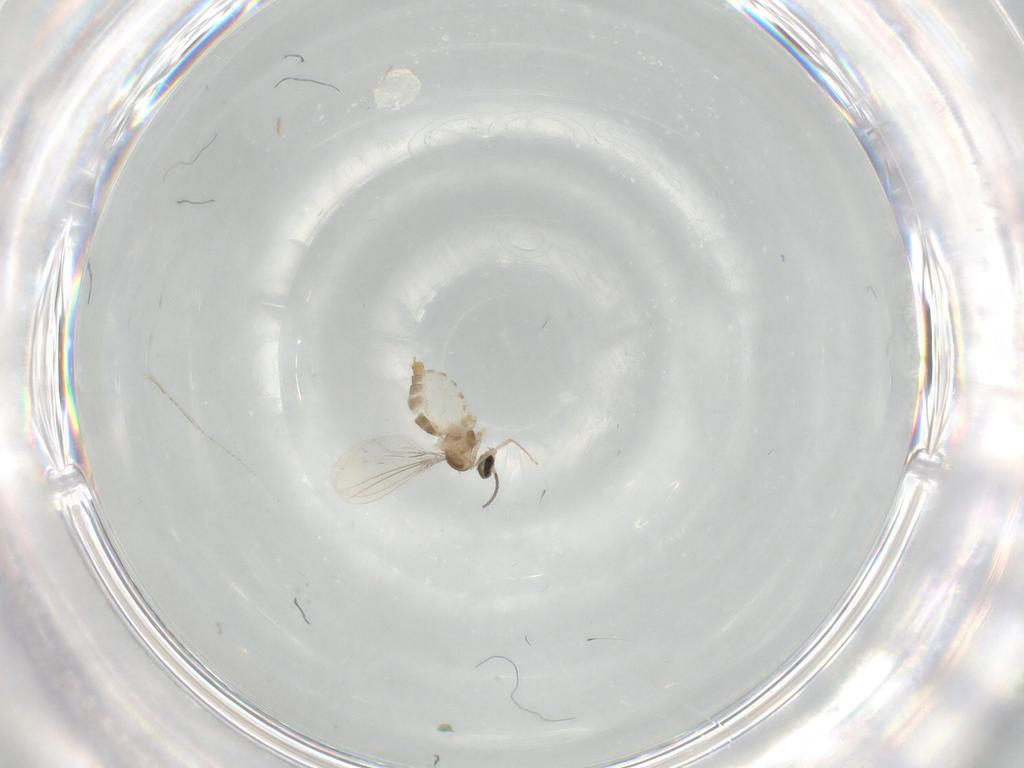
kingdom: Animalia
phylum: Arthropoda
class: Insecta
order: Diptera
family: Cecidomyiidae
